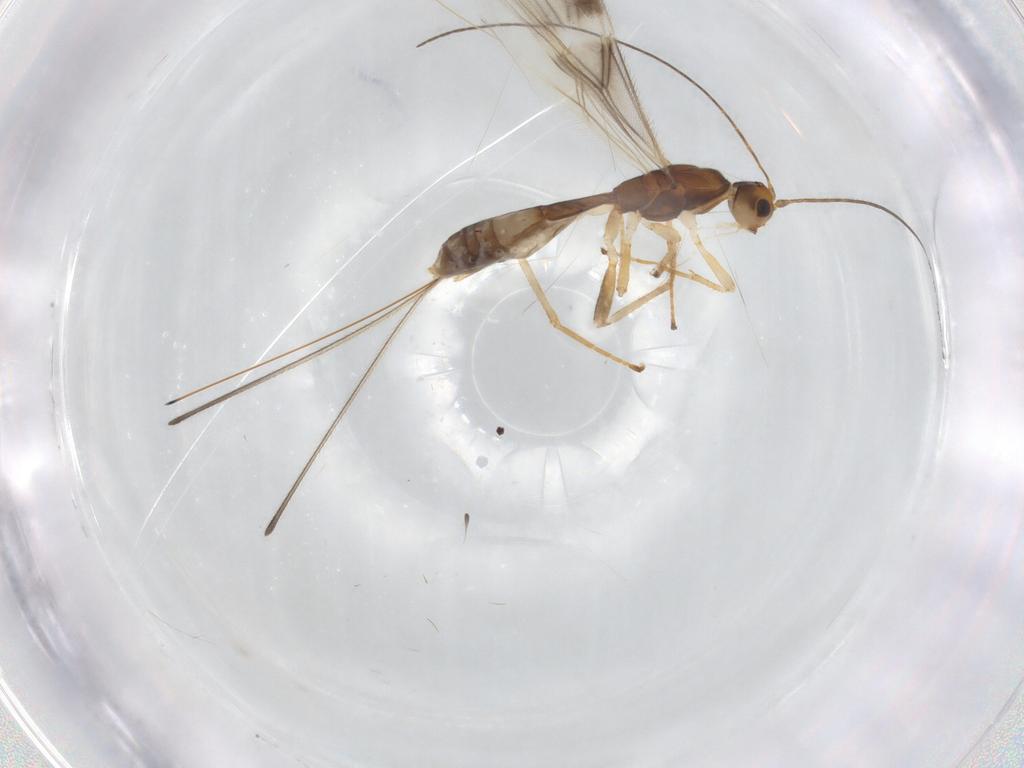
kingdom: Animalia
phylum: Arthropoda
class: Insecta
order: Hymenoptera
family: Braconidae
